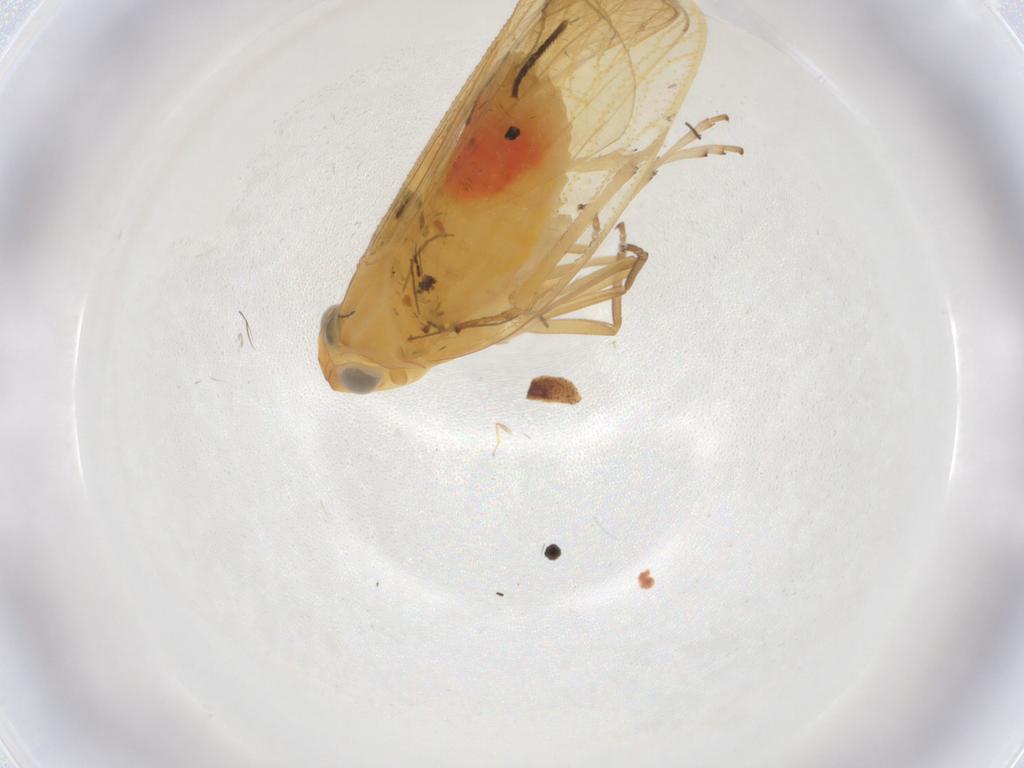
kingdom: Animalia
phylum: Arthropoda
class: Insecta
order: Hemiptera
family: Cixiidae
